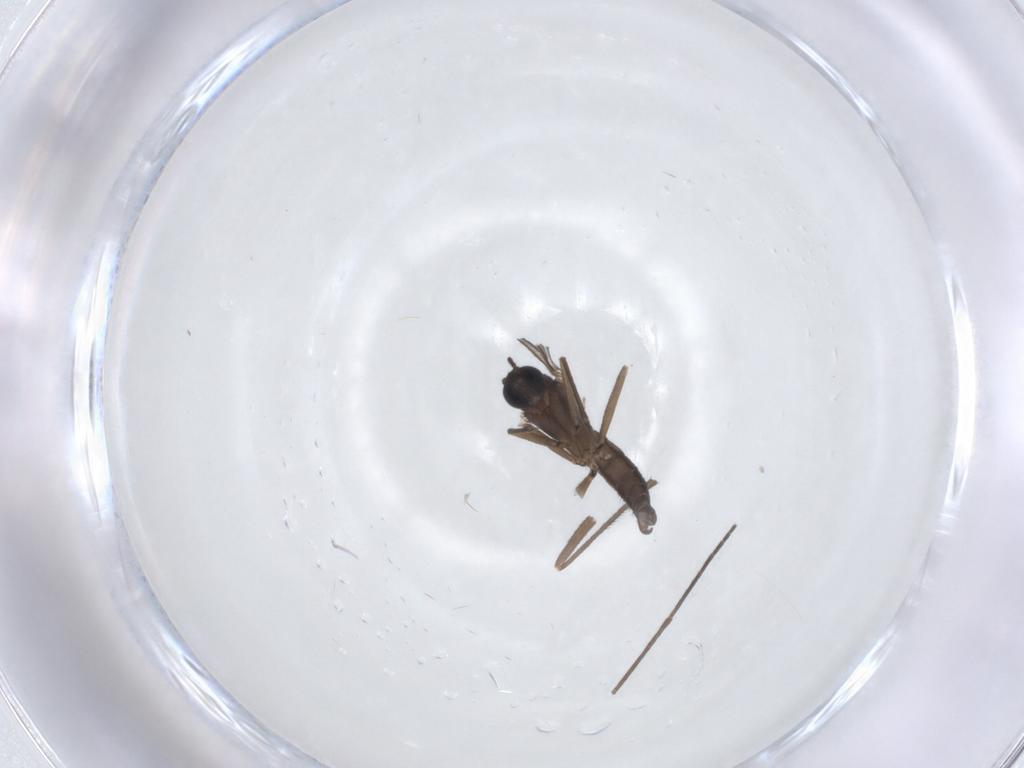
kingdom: Animalia
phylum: Arthropoda
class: Insecta
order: Diptera
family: Sciaridae
